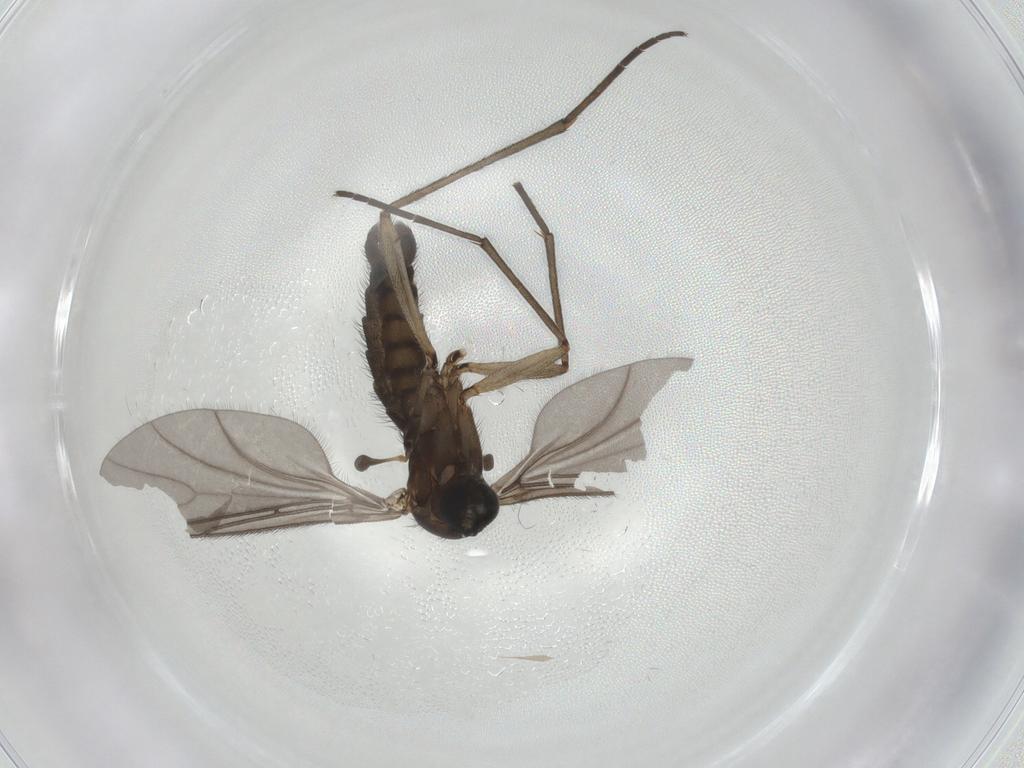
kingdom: Animalia
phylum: Arthropoda
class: Insecta
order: Diptera
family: Sciaridae
